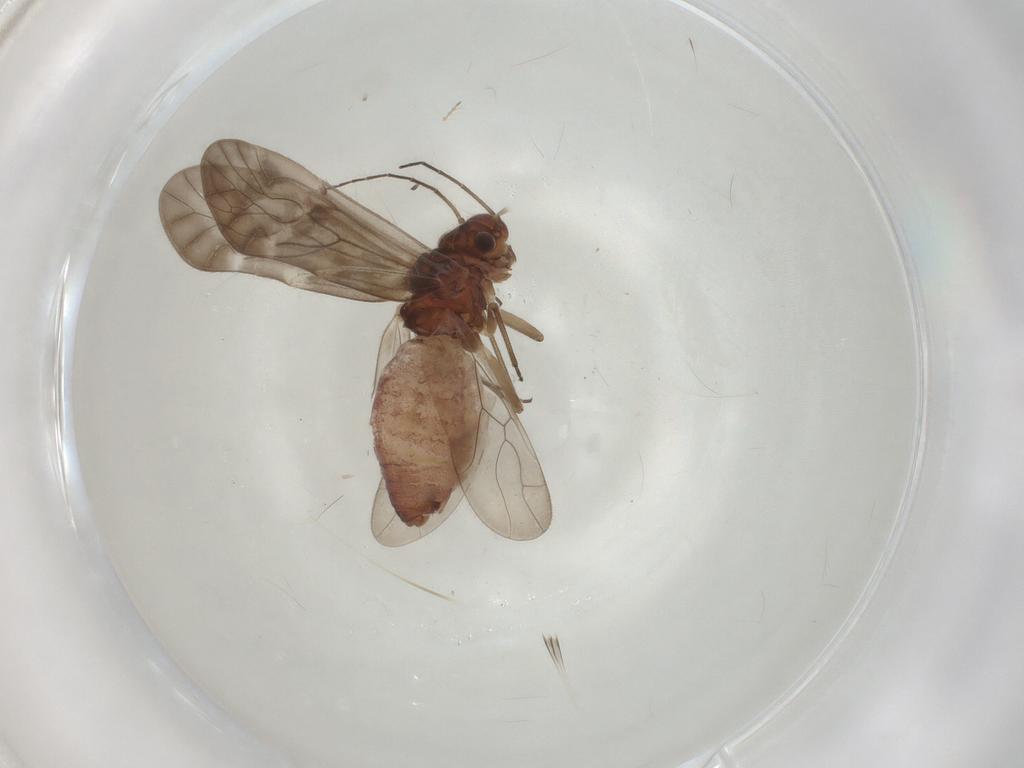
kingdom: Animalia
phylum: Arthropoda
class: Insecta
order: Psocodea
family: Caeciliusidae
